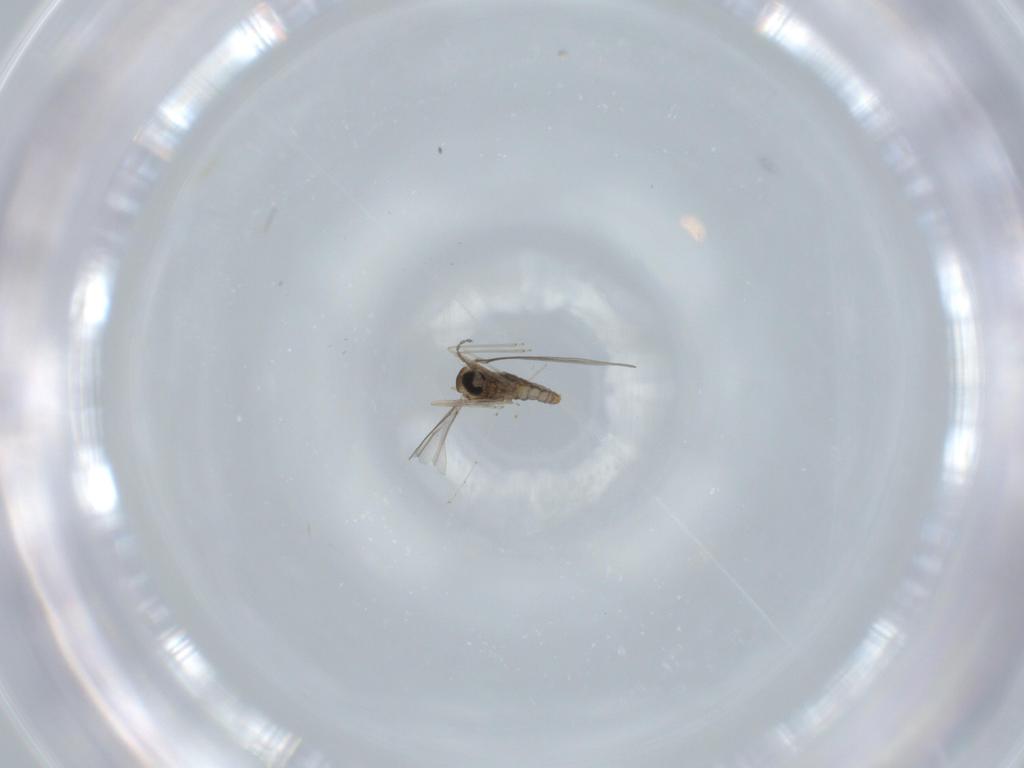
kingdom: Animalia
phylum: Arthropoda
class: Insecta
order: Diptera
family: Cecidomyiidae
